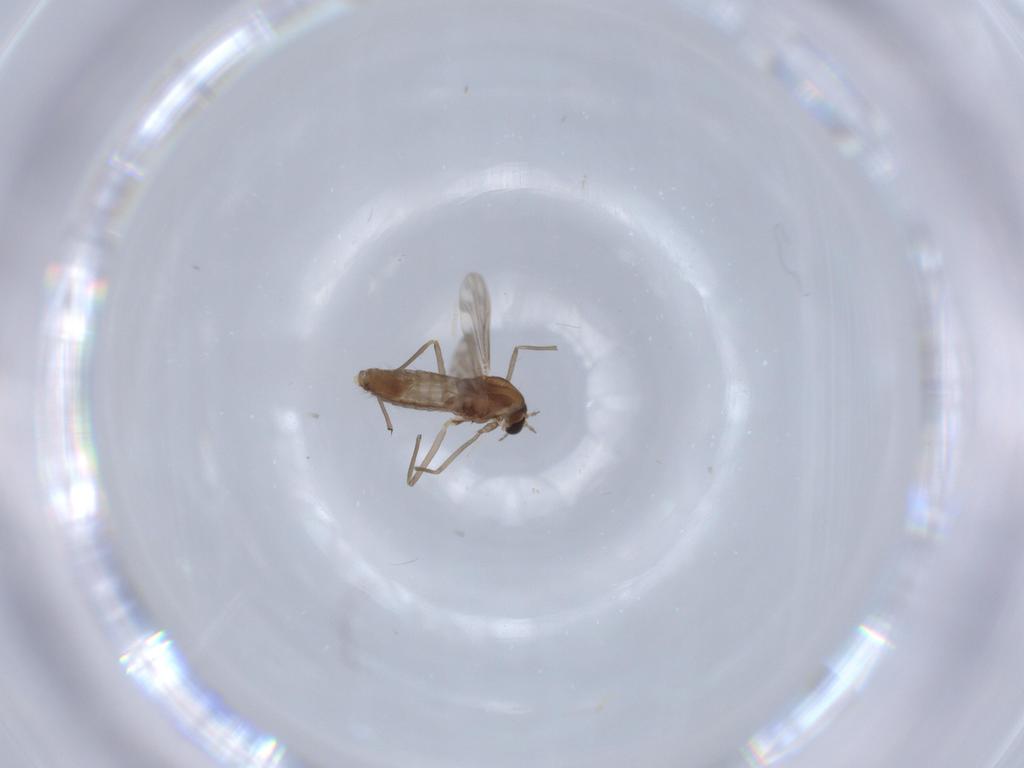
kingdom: Animalia
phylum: Arthropoda
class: Insecta
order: Diptera
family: Chironomidae
